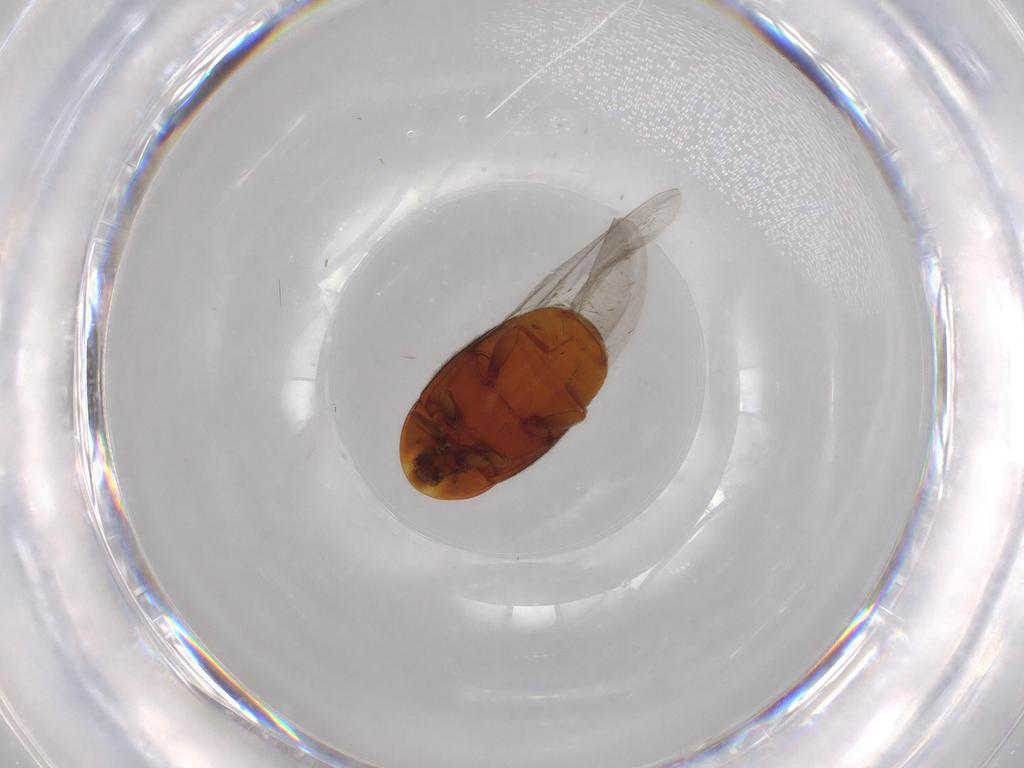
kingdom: Animalia
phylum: Arthropoda
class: Insecta
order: Coleoptera
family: Corylophidae
